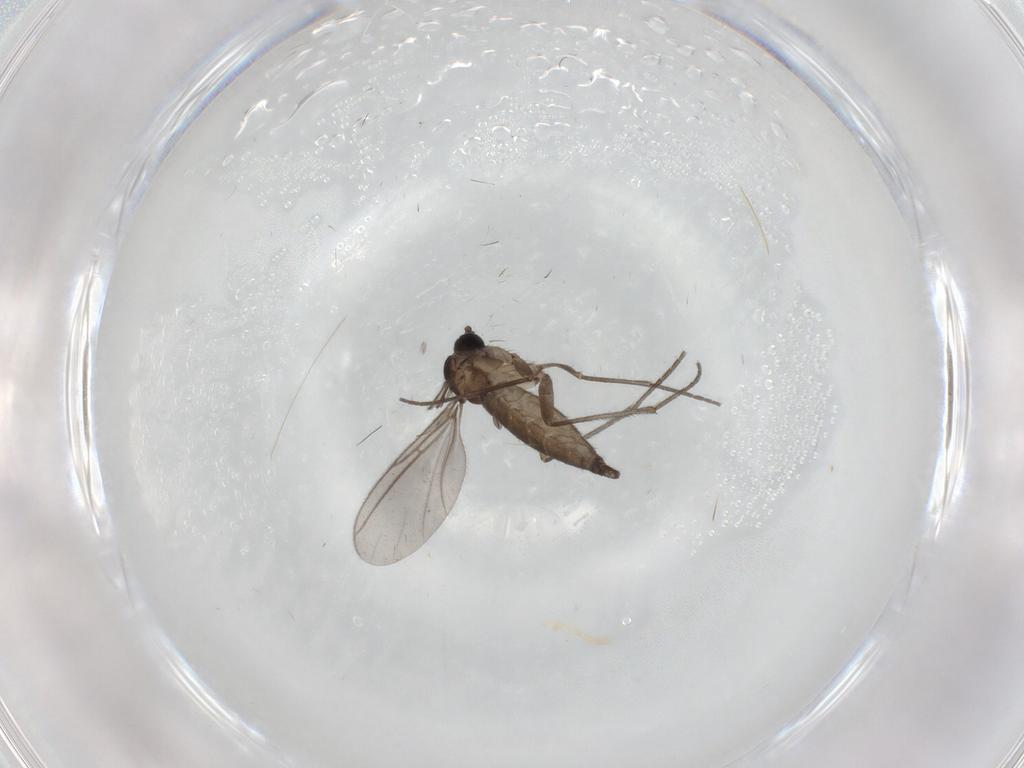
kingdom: Animalia
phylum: Arthropoda
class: Insecta
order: Diptera
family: Sciaridae
